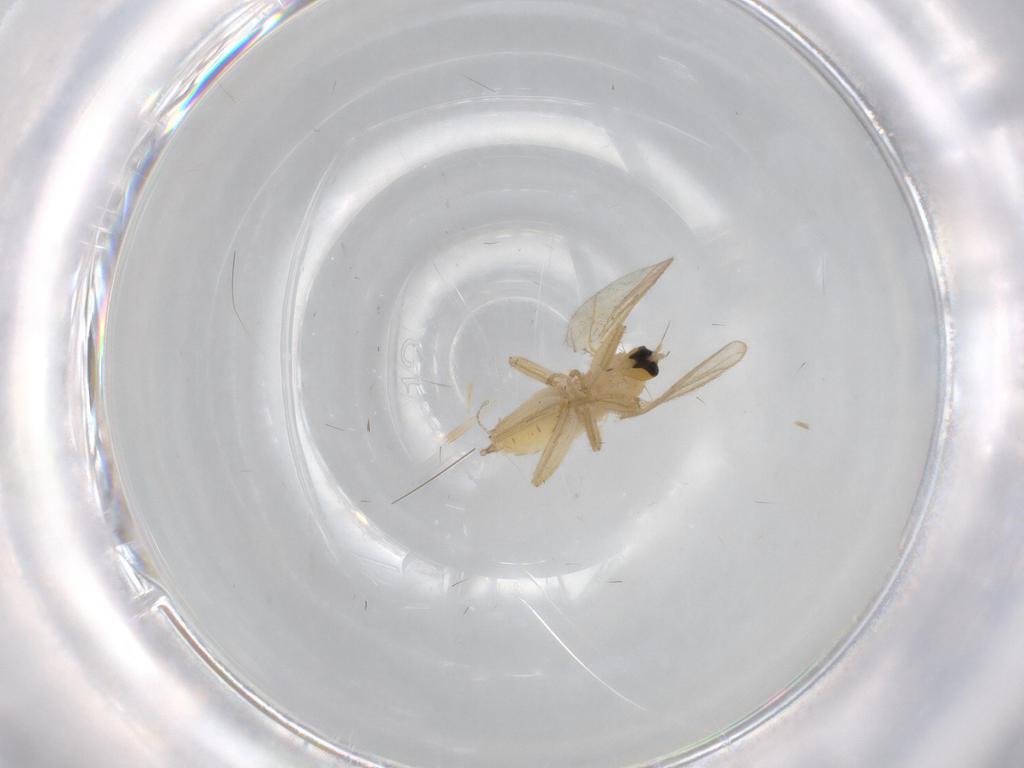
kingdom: Animalia
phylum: Arthropoda
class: Insecta
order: Diptera
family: Hybotidae
